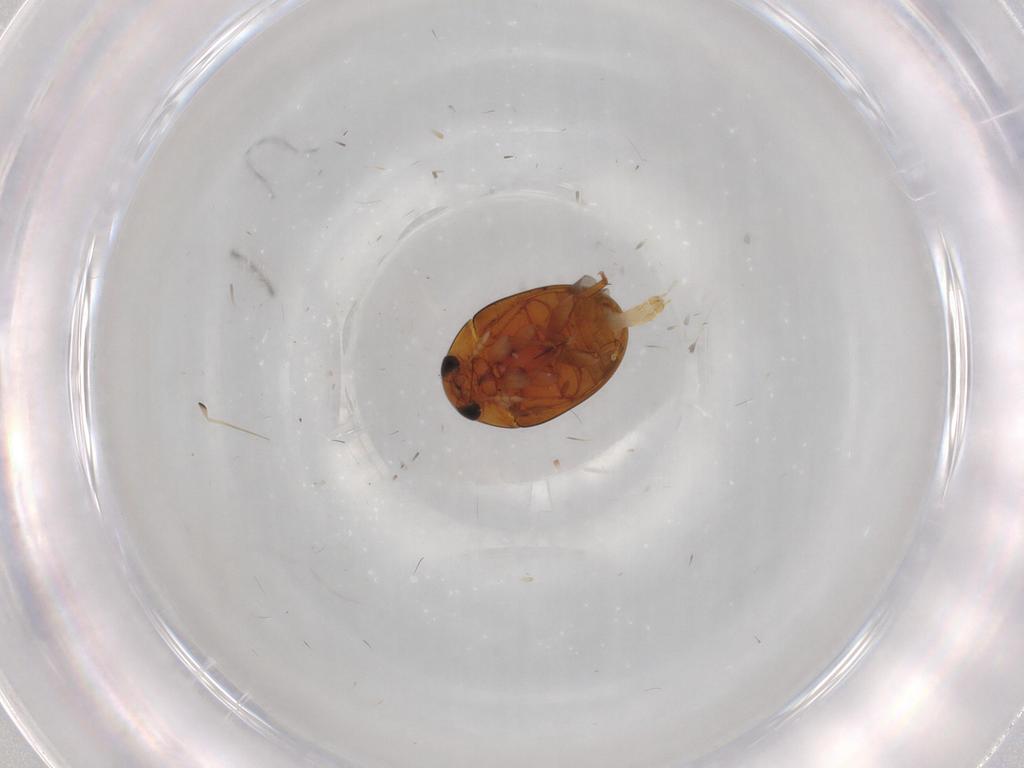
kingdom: Animalia
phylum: Arthropoda
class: Insecta
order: Coleoptera
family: Phalacridae
